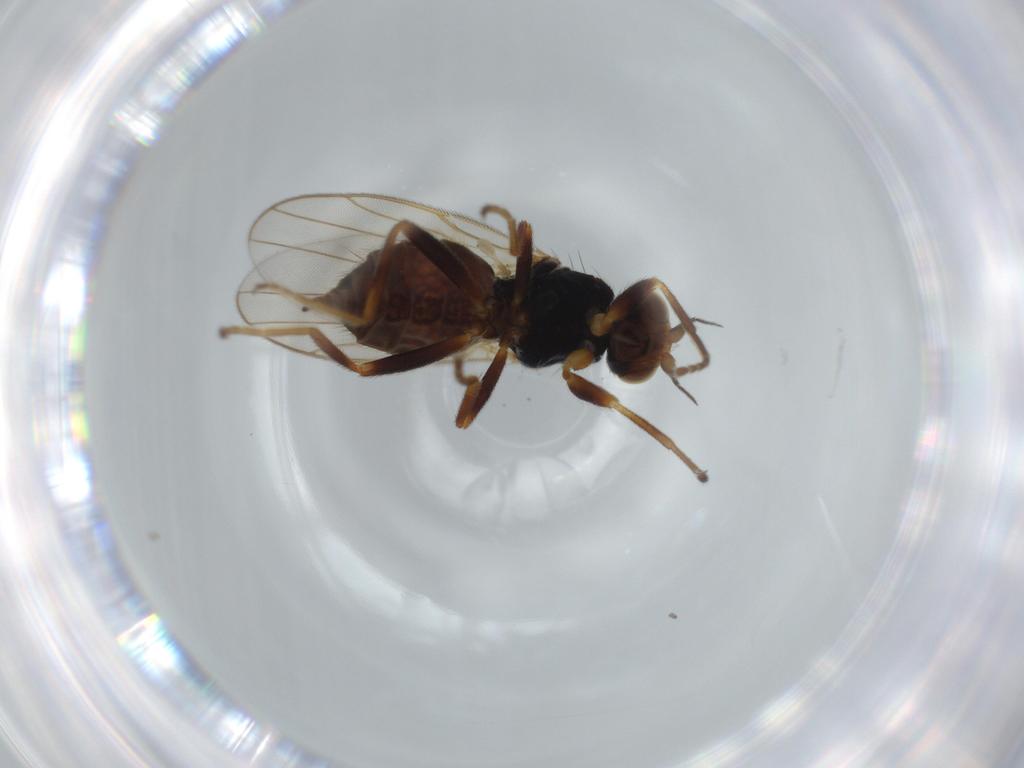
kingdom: Animalia
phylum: Arthropoda
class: Insecta
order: Diptera
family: Chloropidae
